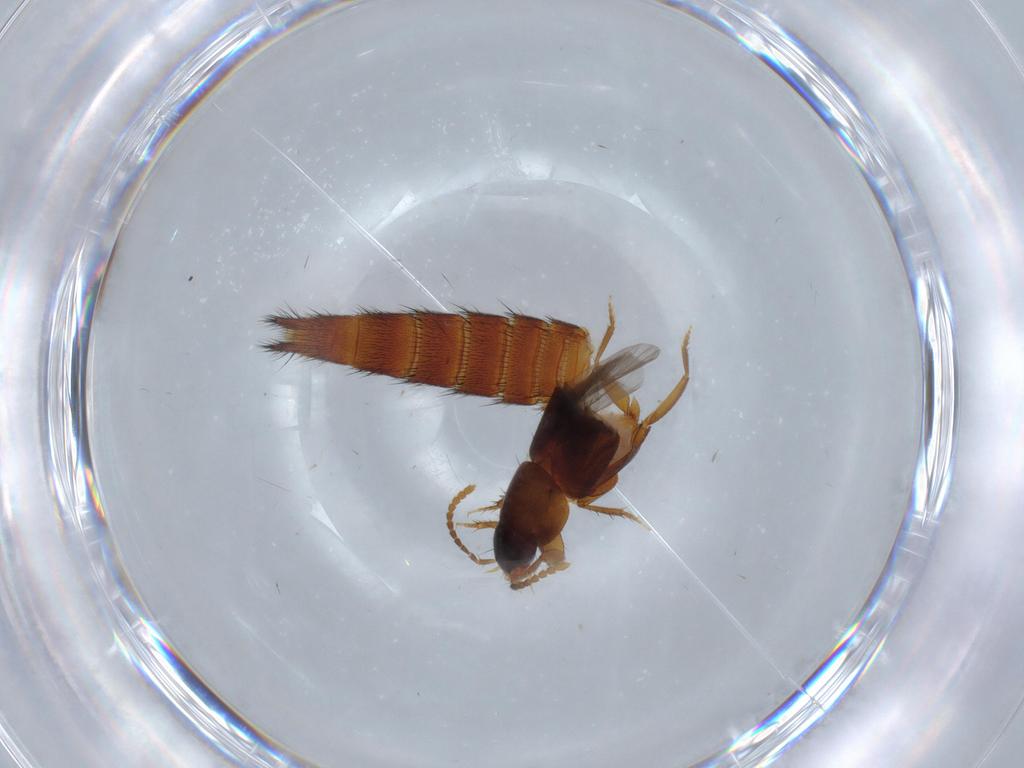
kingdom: Animalia
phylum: Arthropoda
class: Insecta
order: Coleoptera
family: Staphylinidae
